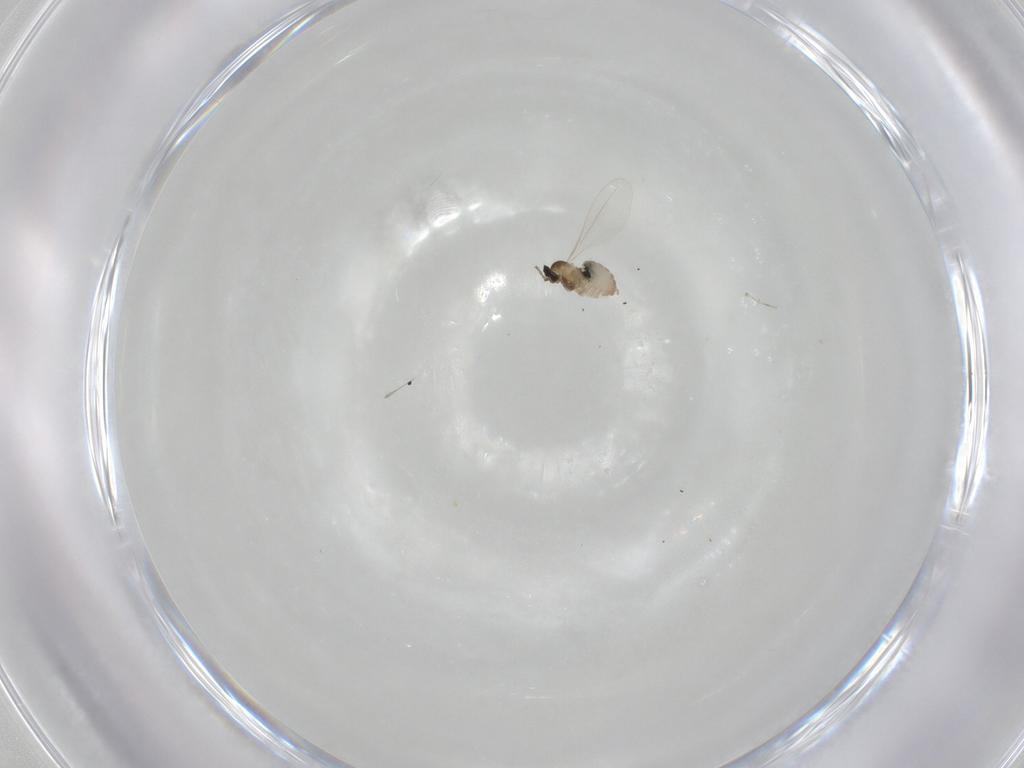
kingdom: Animalia
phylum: Arthropoda
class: Insecta
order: Diptera
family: Cecidomyiidae
